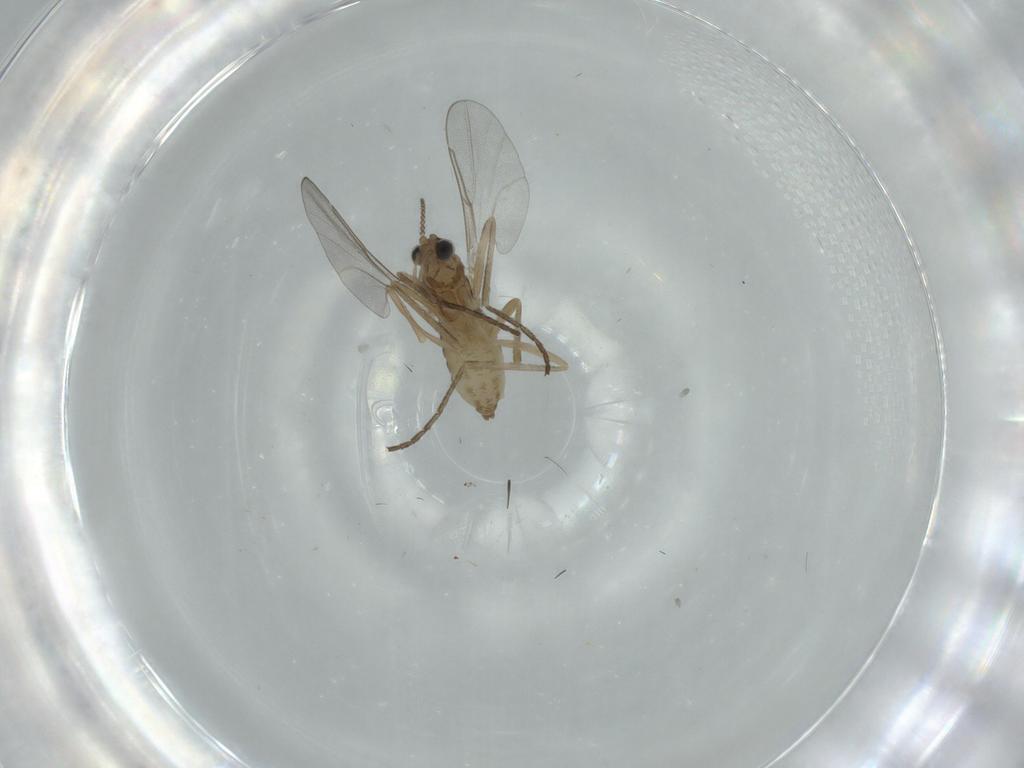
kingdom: Animalia
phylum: Arthropoda
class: Insecta
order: Diptera
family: Cecidomyiidae
